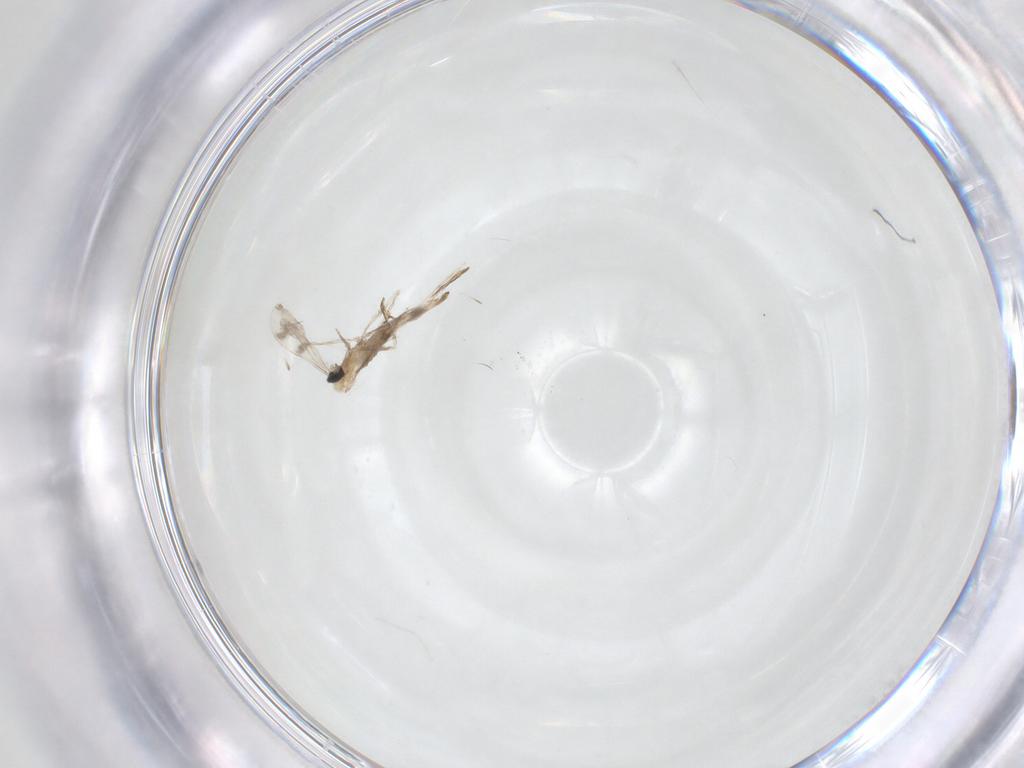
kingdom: Animalia
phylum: Arthropoda
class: Insecta
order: Diptera
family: Cecidomyiidae
